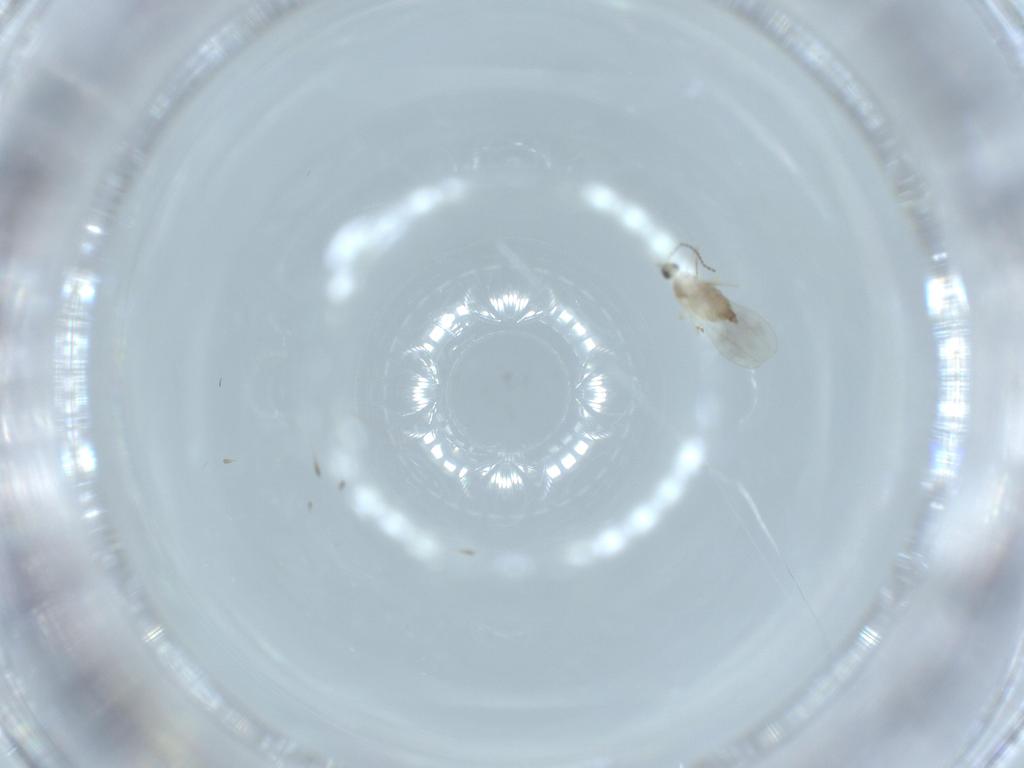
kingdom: Animalia
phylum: Arthropoda
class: Insecta
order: Diptera
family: Cecidomyiidae
